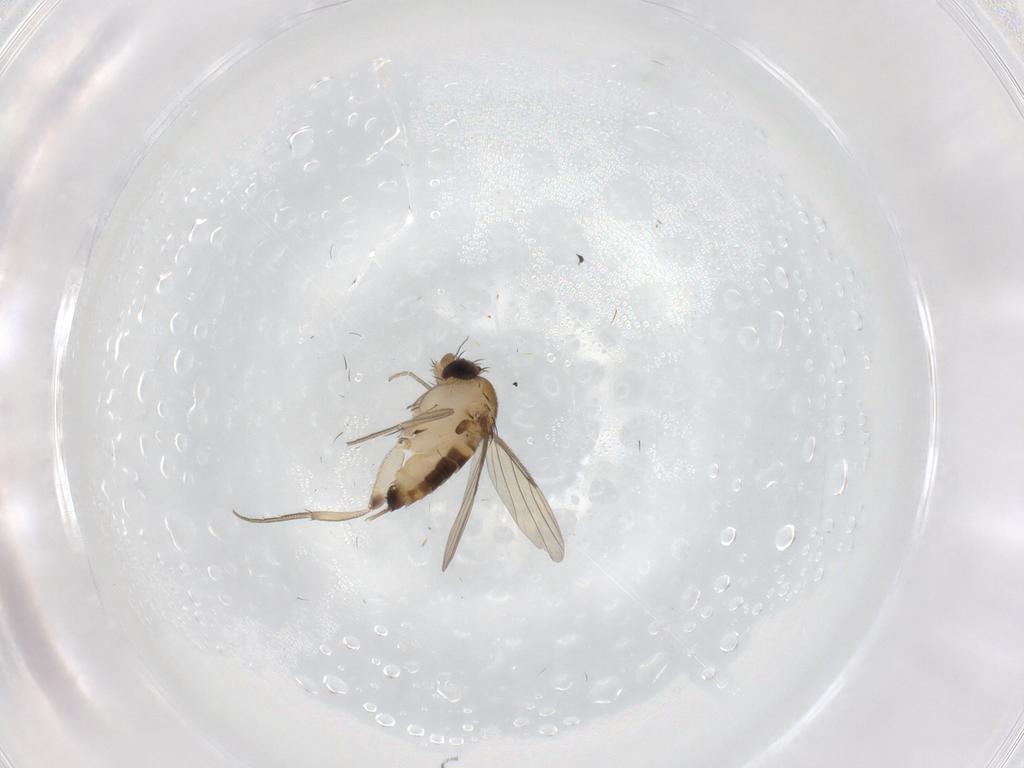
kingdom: Animalia
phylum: Arthropoda
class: Insecta
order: Diptera
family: Phoridae
